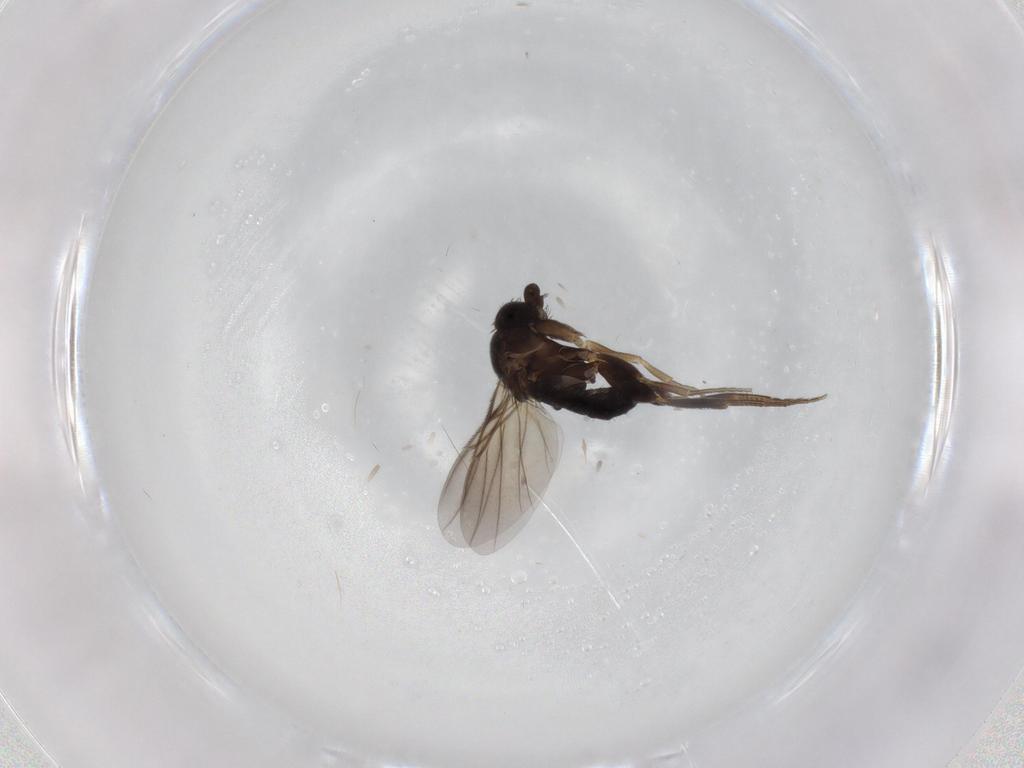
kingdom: Animalia
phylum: Arthropoda
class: Insecta
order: Diptera
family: Phoridae
